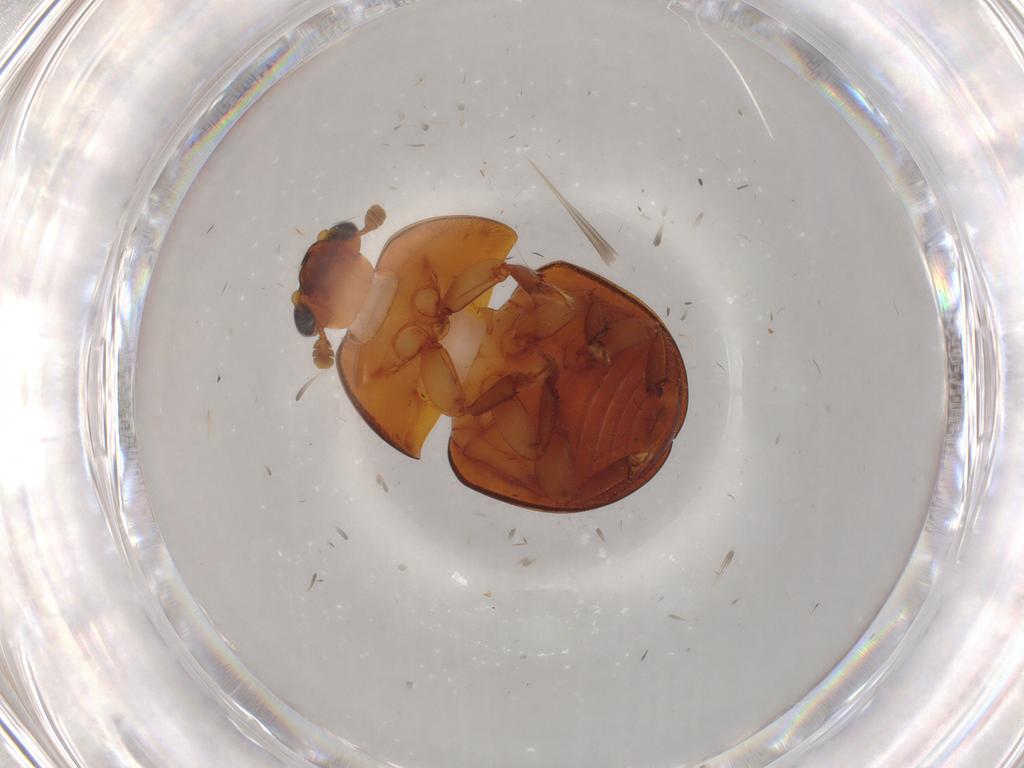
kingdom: Animalia
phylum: Arthropoda
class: Insecta
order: Coleoptera
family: Nitidulidae
